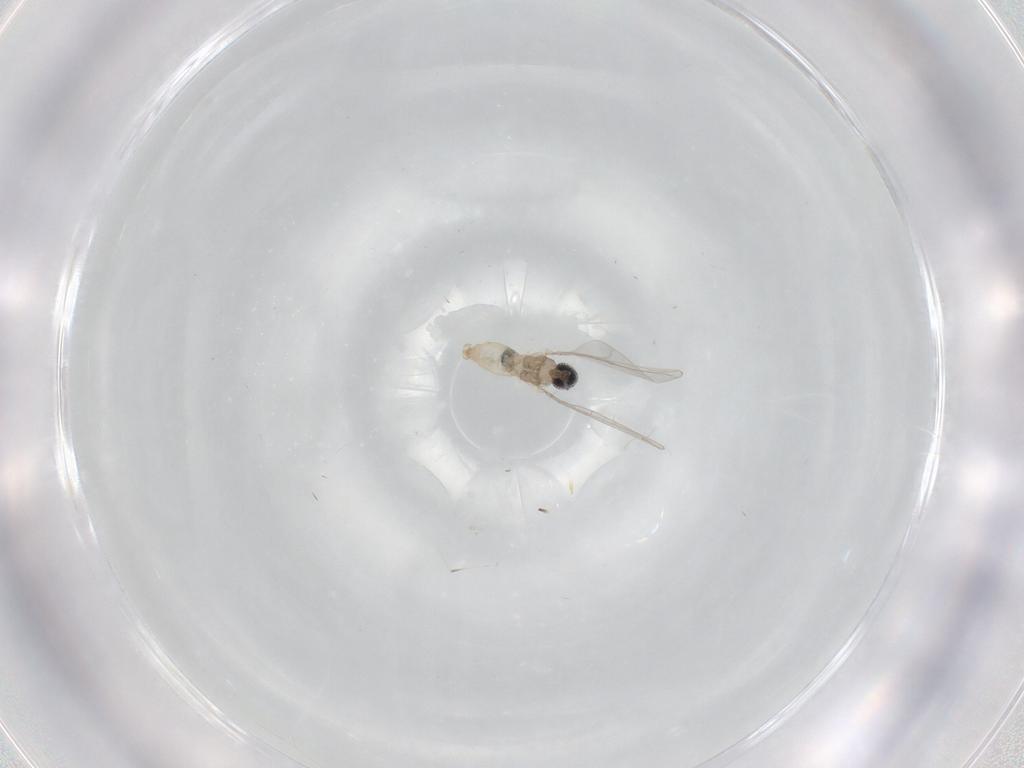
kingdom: Animalia
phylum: Arthropoda
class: Insecta
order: Diptera
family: Cecidomyiidae
